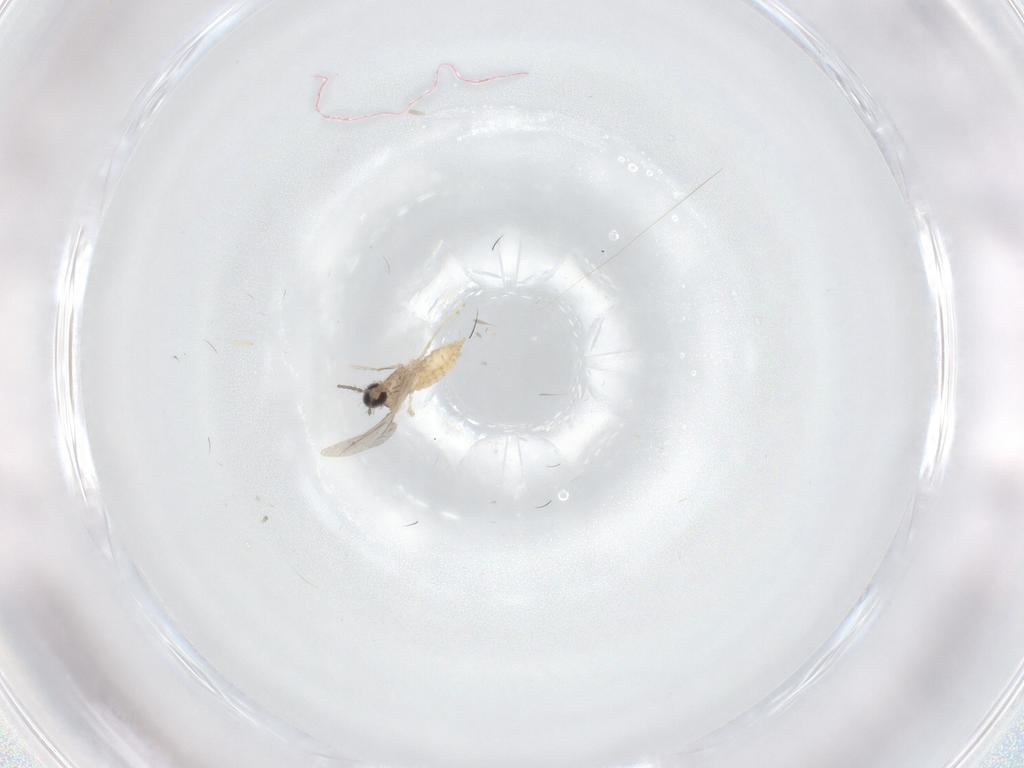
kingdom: Animalia
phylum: Arthropoda
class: Insecta
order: Diptera
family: Cecidomyiidae
